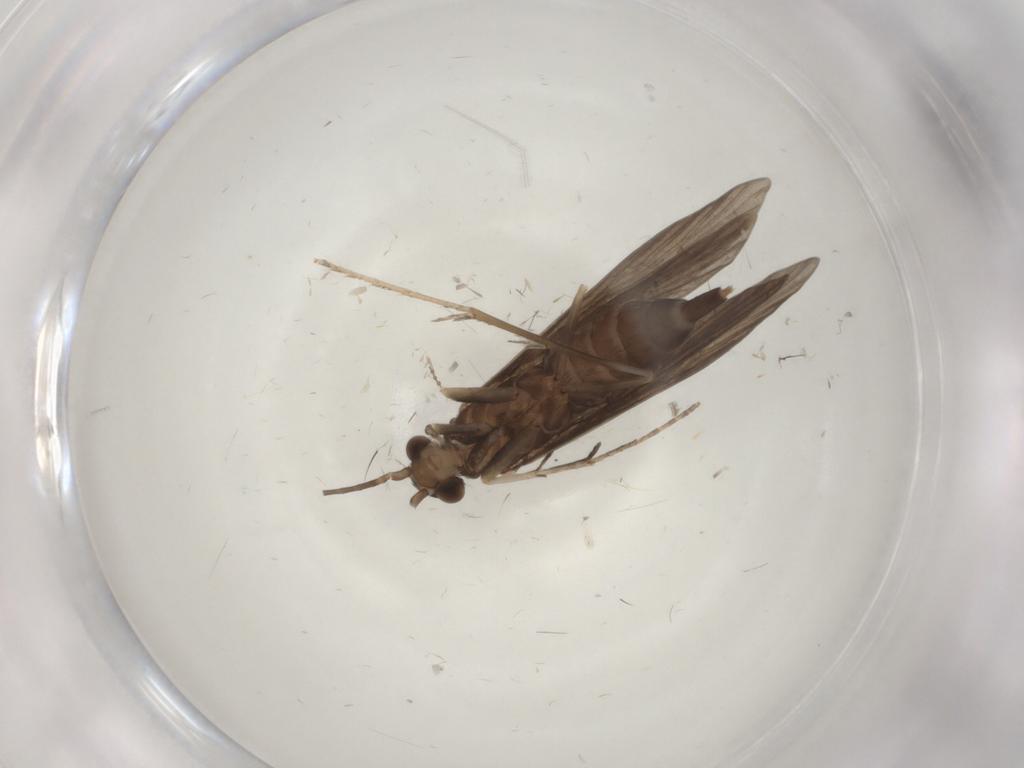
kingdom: Animalia
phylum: Arthropoda
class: Insecta
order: Trichoptera
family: Xiphocentronidae
